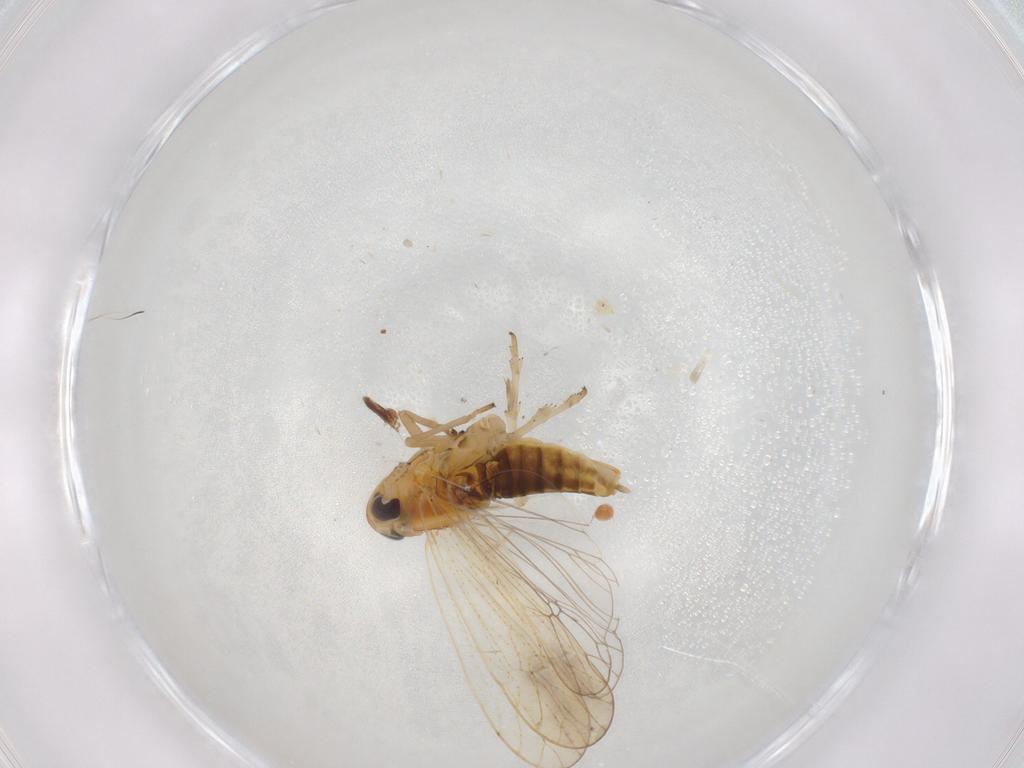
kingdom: Animalia
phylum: Arthropoda
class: Insecta
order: Hemiptera
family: Delphacidae
